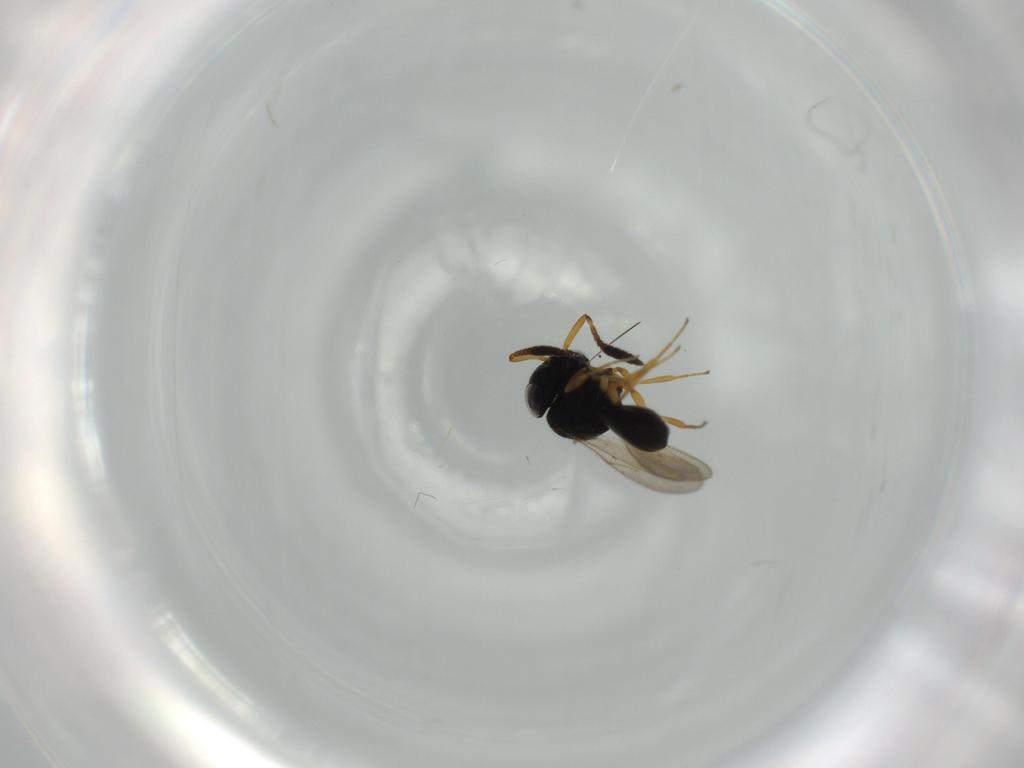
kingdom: Animalia
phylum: Arthropoda
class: Insecta
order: Hymenoptera
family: Scelionidae
